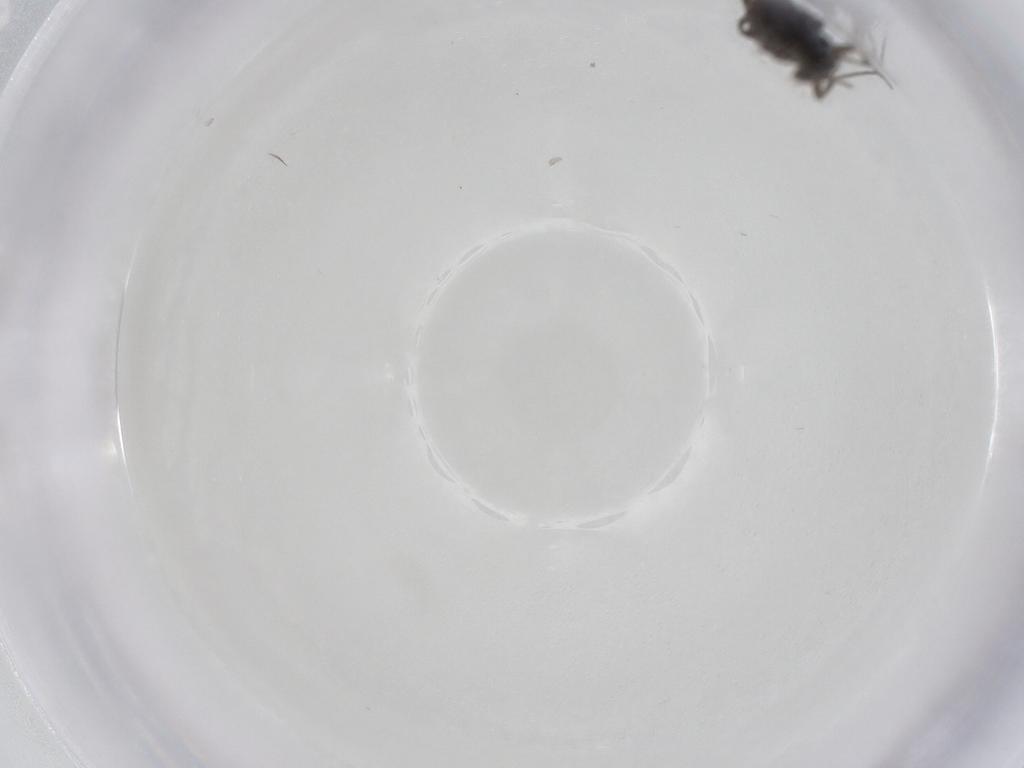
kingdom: Animalia
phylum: Arthropoda
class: Insecta
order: Diptera
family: Phoridae
